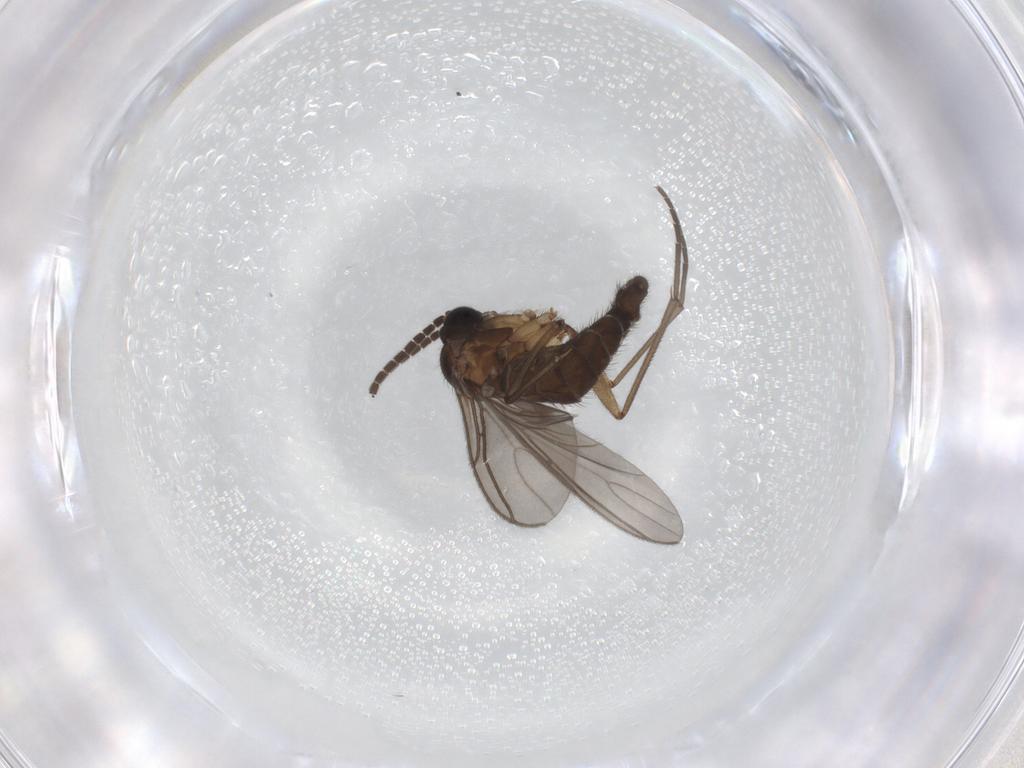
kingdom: Animalia
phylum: Arthropoda
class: Insecta
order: Diptera
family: Sciaridae
